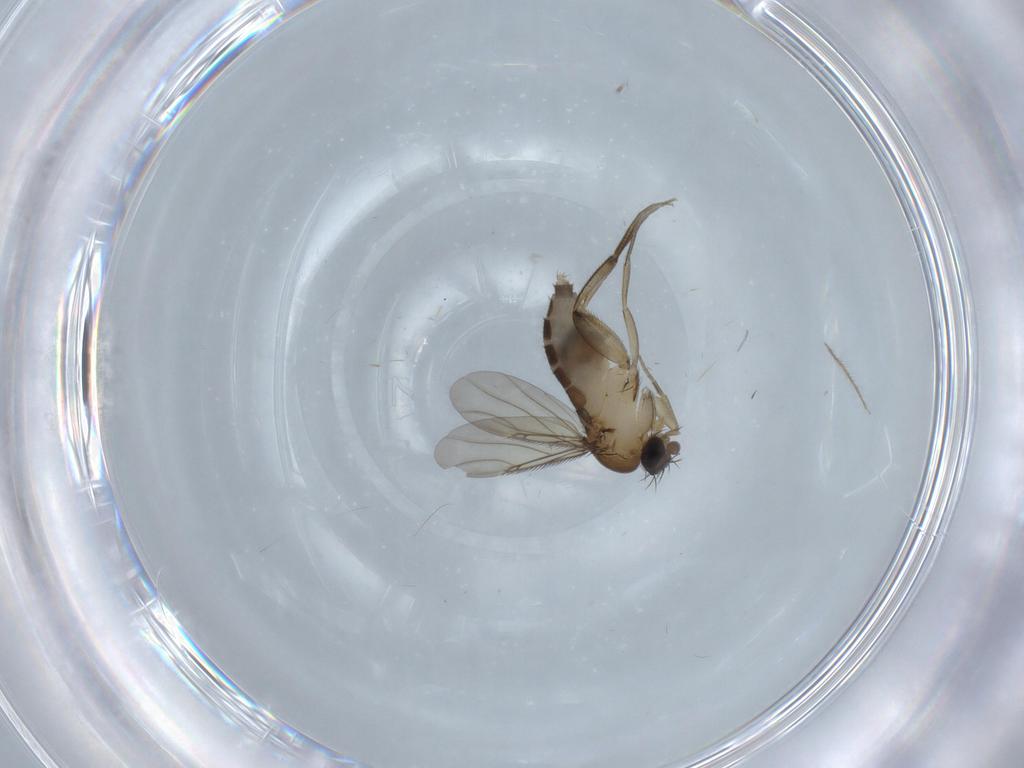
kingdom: Animalia
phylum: Arthropoda
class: Insecta
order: Diptera
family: Phoridae
